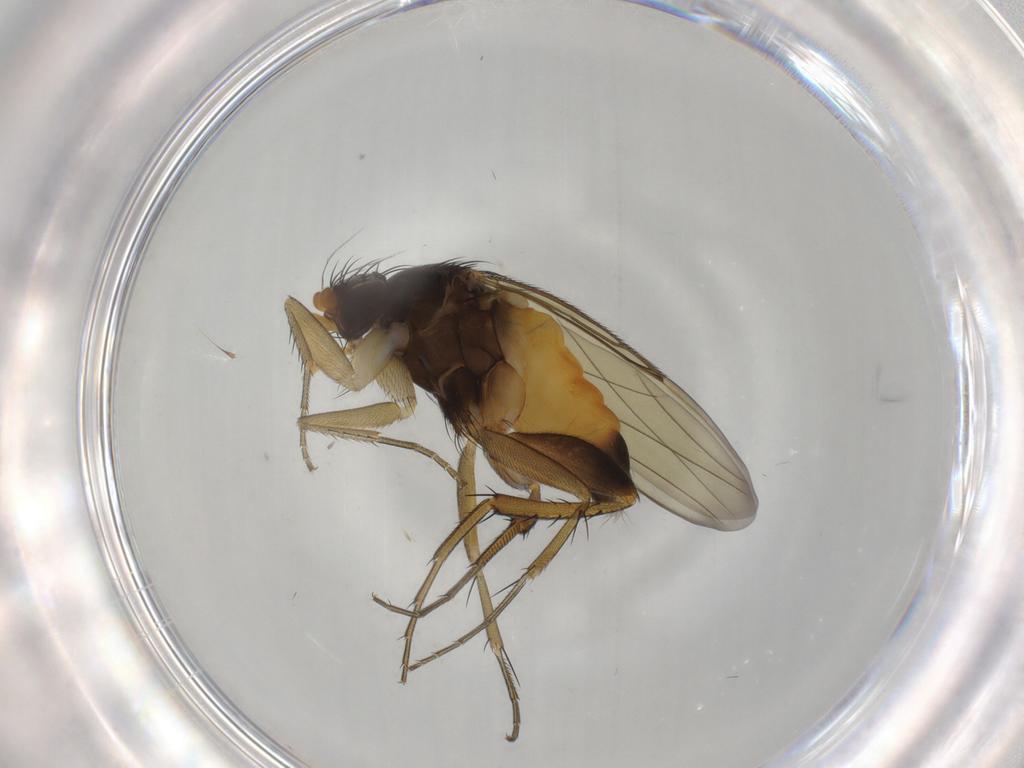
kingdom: Animalia
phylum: Arthropoda
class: Insecta
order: Diptera
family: Phoridae
